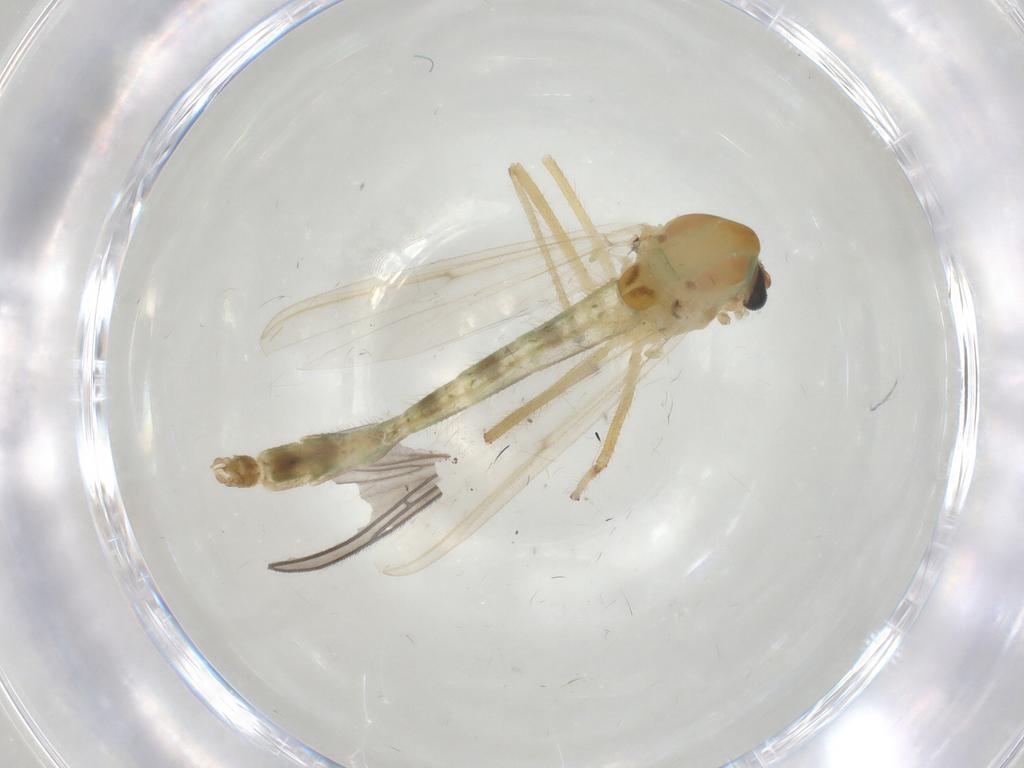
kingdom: Animalia
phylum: Arthropoda
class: Insecta
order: Diptera
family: Chironomidae
